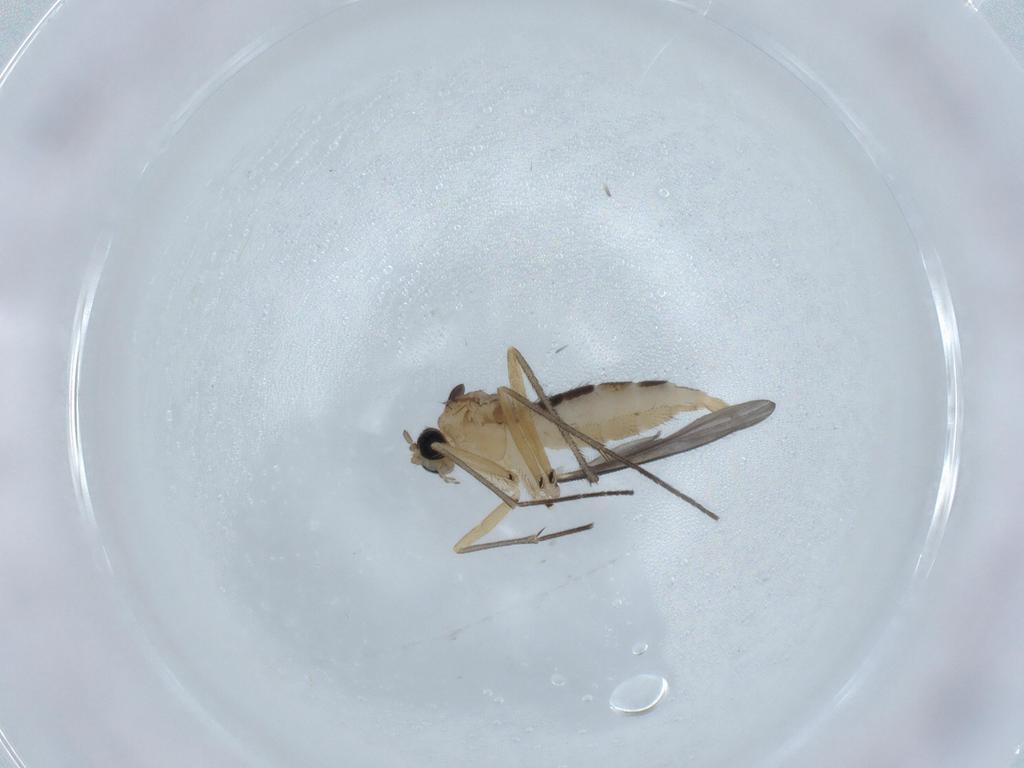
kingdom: Animalia
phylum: Arthropoda
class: Insecta
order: Diptera
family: Sciaridae
